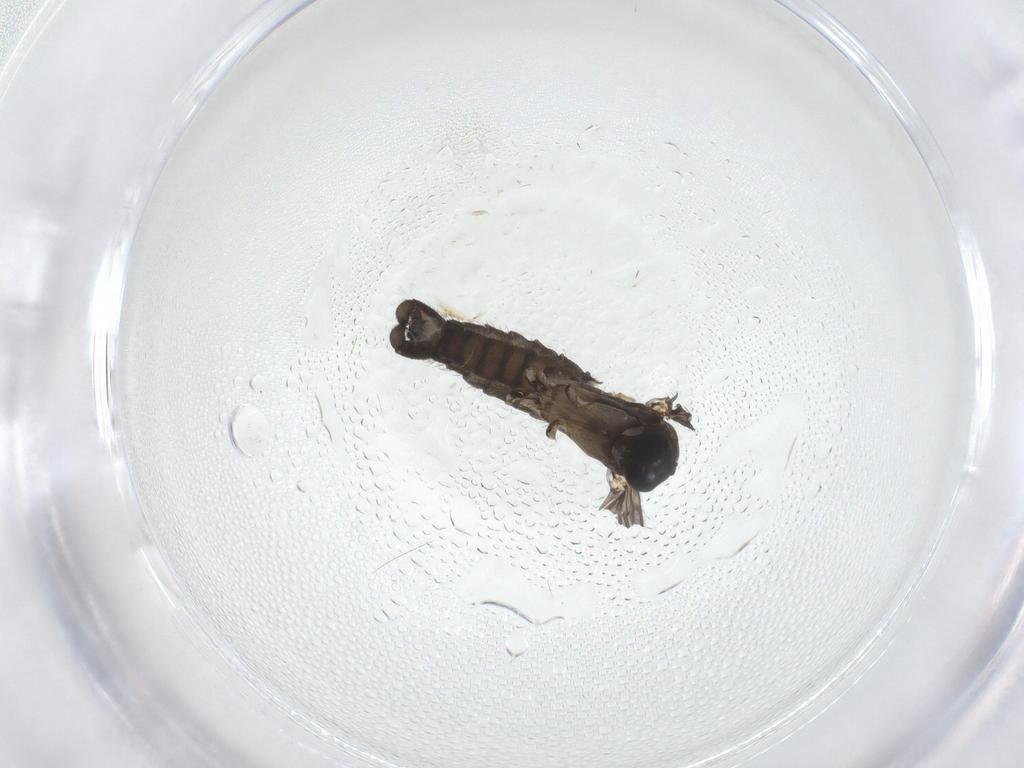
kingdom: Animalia
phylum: Arthropoda
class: Insecta
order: Diptera
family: Sciaridae
